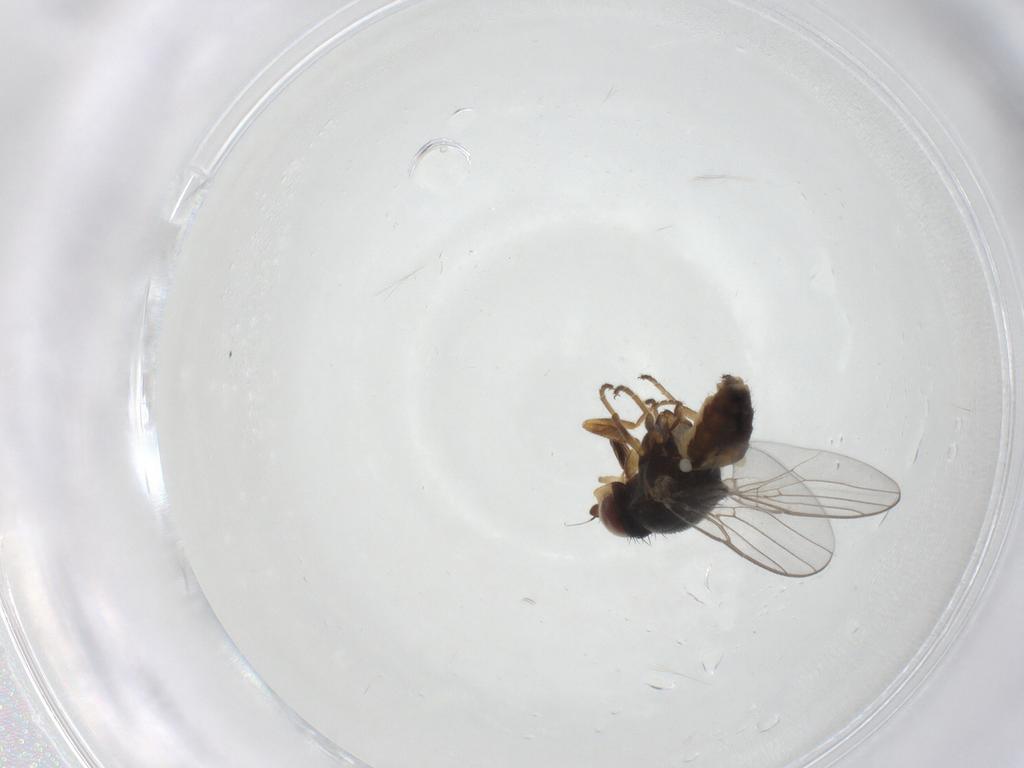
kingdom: Animalia
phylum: Arthropoda
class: Insecta
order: Diptera
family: Chloropidae
